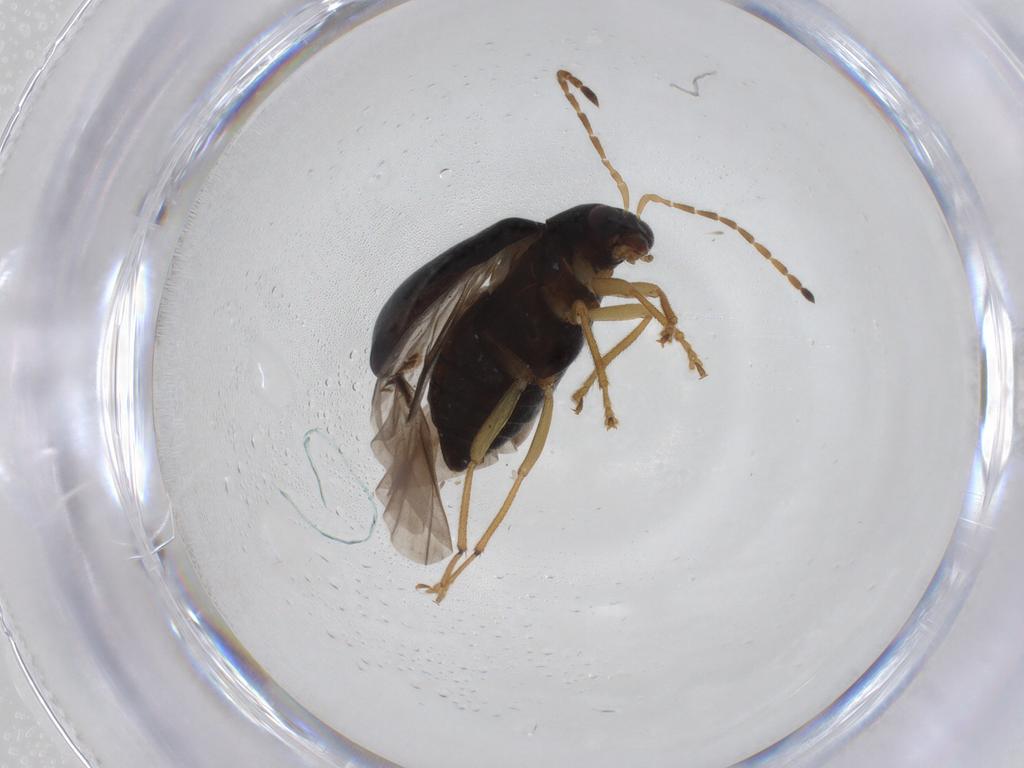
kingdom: Animalia
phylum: Arthropoda
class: Insecta
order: Coleoptera
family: Chrysomelidae
